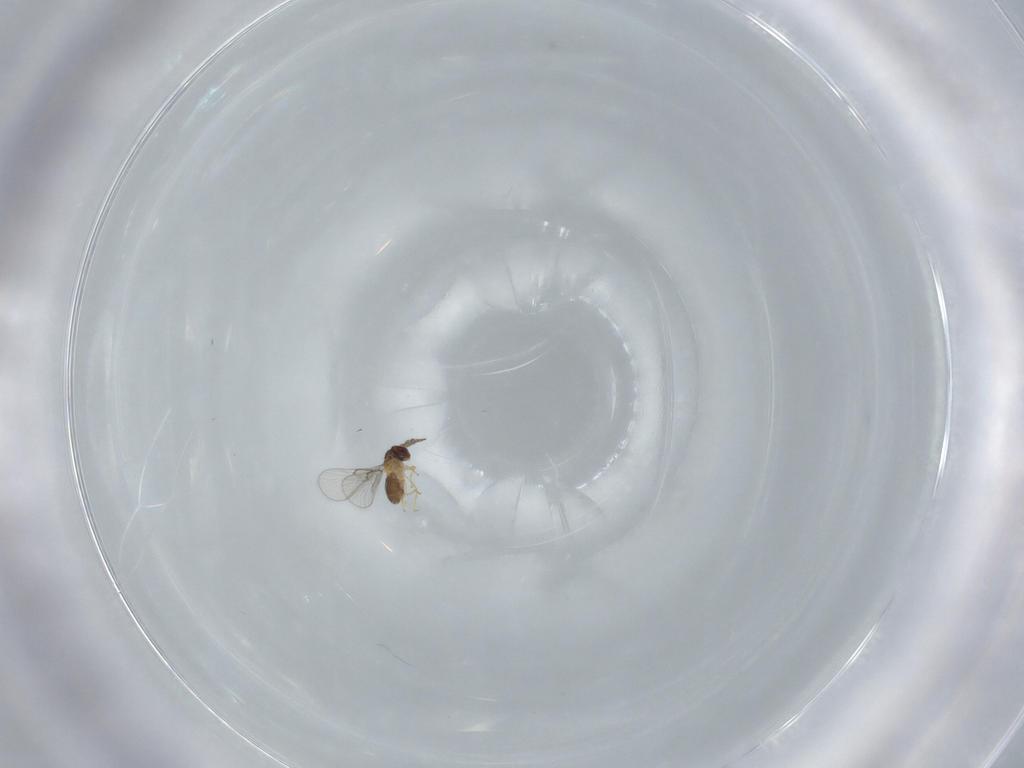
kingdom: Animalia
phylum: Arthropoda
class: Insecta
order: Hymenoptera
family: Trichogrammatidae
